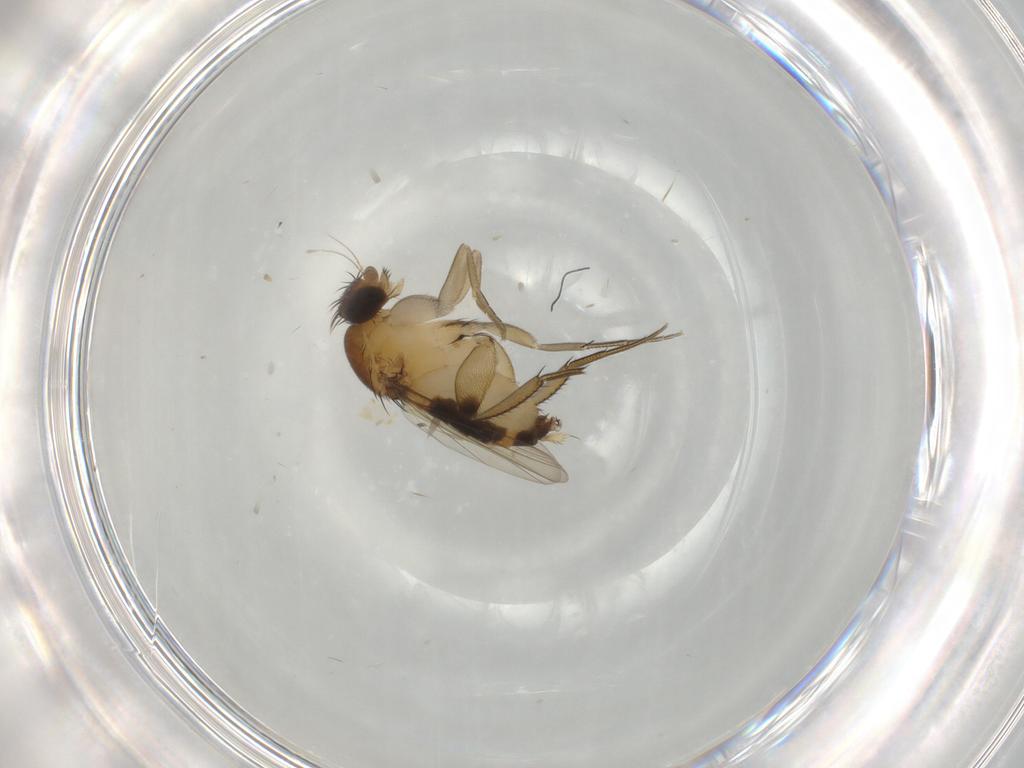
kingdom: Animalia
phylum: Arthropoda
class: Insecta
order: Diptera
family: Phoridae
